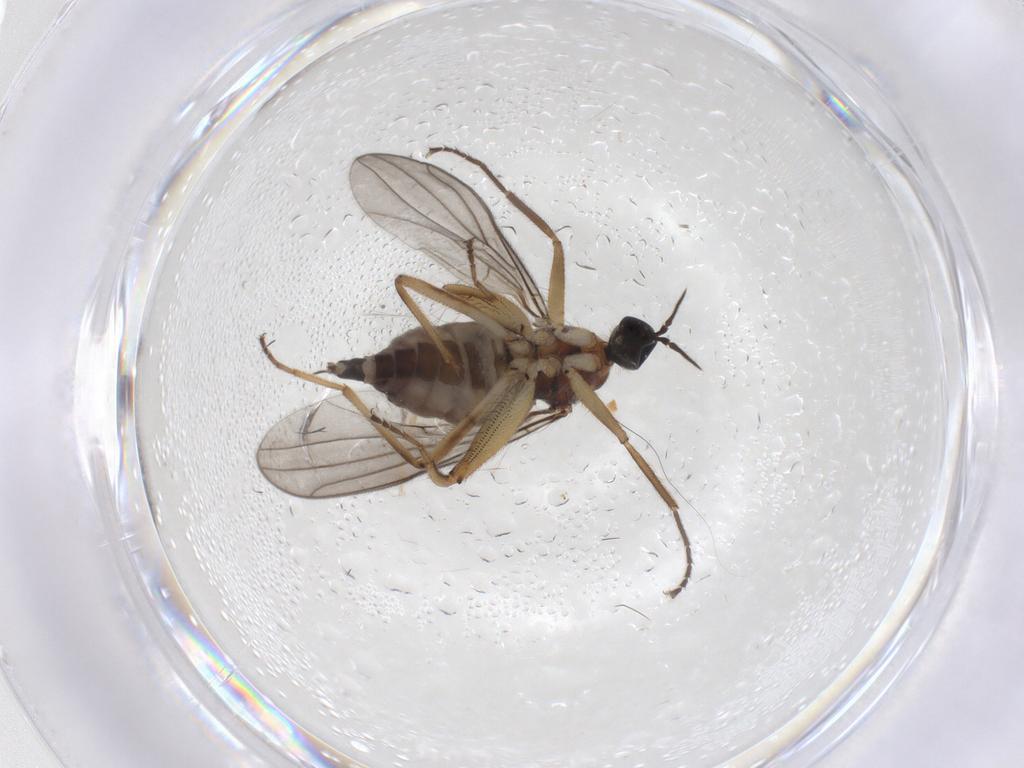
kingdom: Animalia
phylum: Arthropoda
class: Insecta
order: Diptera
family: Hybotidae
